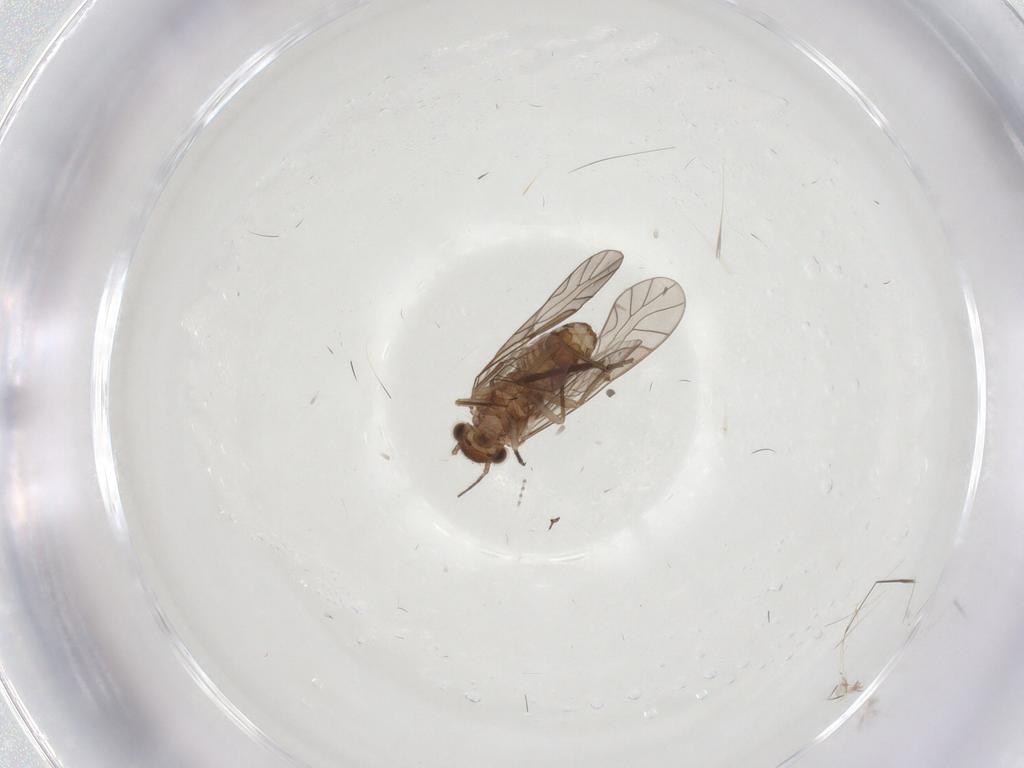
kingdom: Animalia
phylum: Arthropoda
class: Insecta
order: Psocodea
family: Lachesillidae
